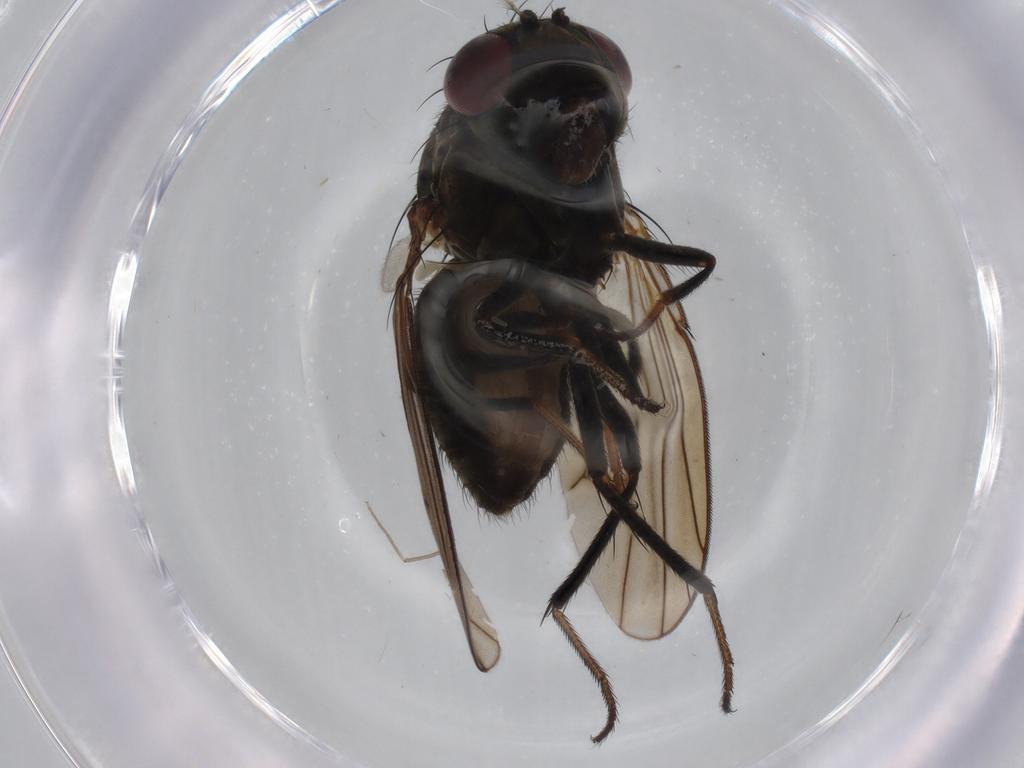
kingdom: Animalia
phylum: Arthropoda
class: Insecta
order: Diptera
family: Ephydridae
